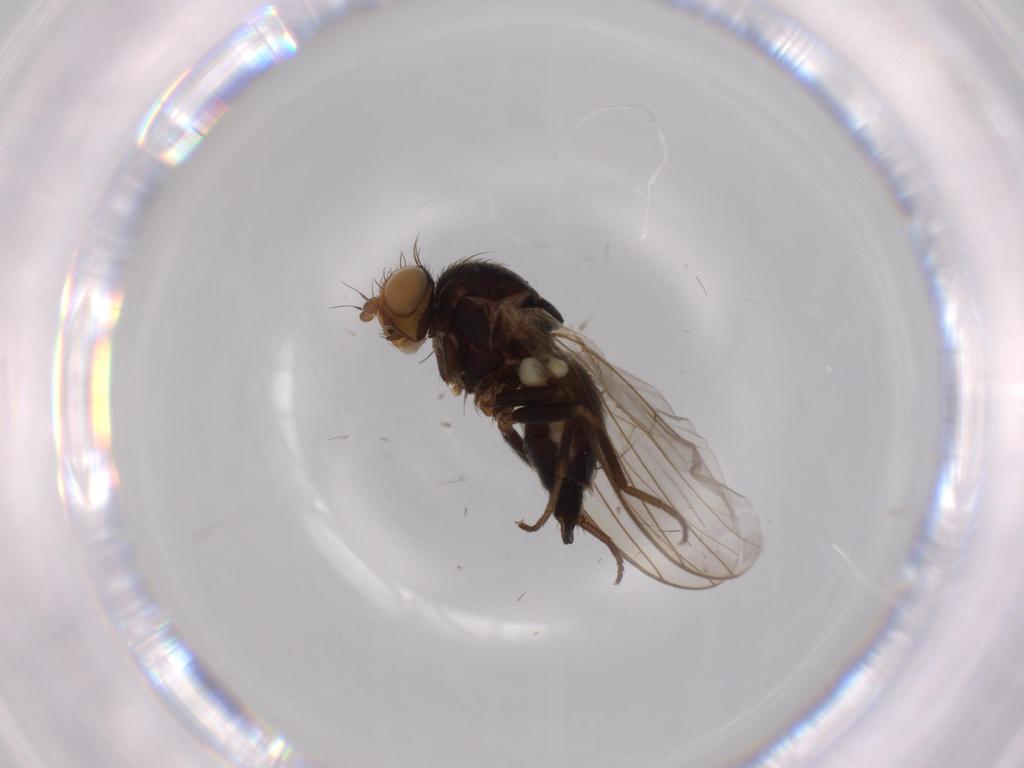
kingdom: Animalia
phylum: Arthropoda
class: Insecta
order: Diptera
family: Chironomidae
